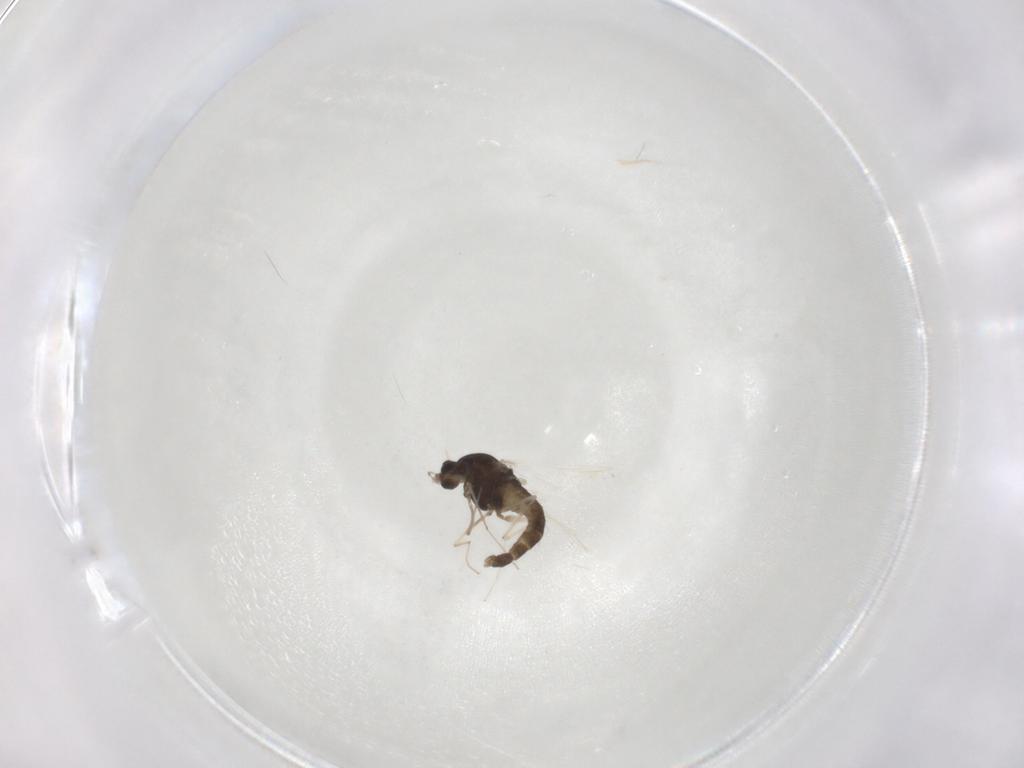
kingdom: Animalia
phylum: Arthropoda
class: Insecta
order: Diptera
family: Chironomidae
